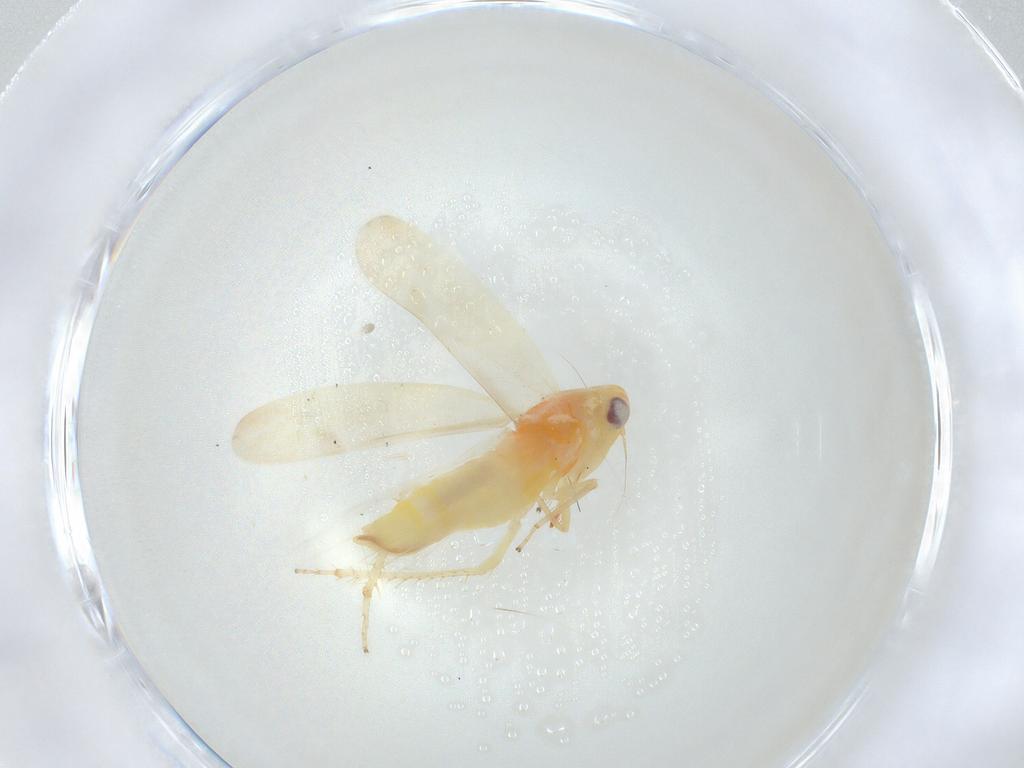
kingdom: Animalia
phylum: Arthropoda
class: Insecta
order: Hemiptera
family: Cicadellidae
